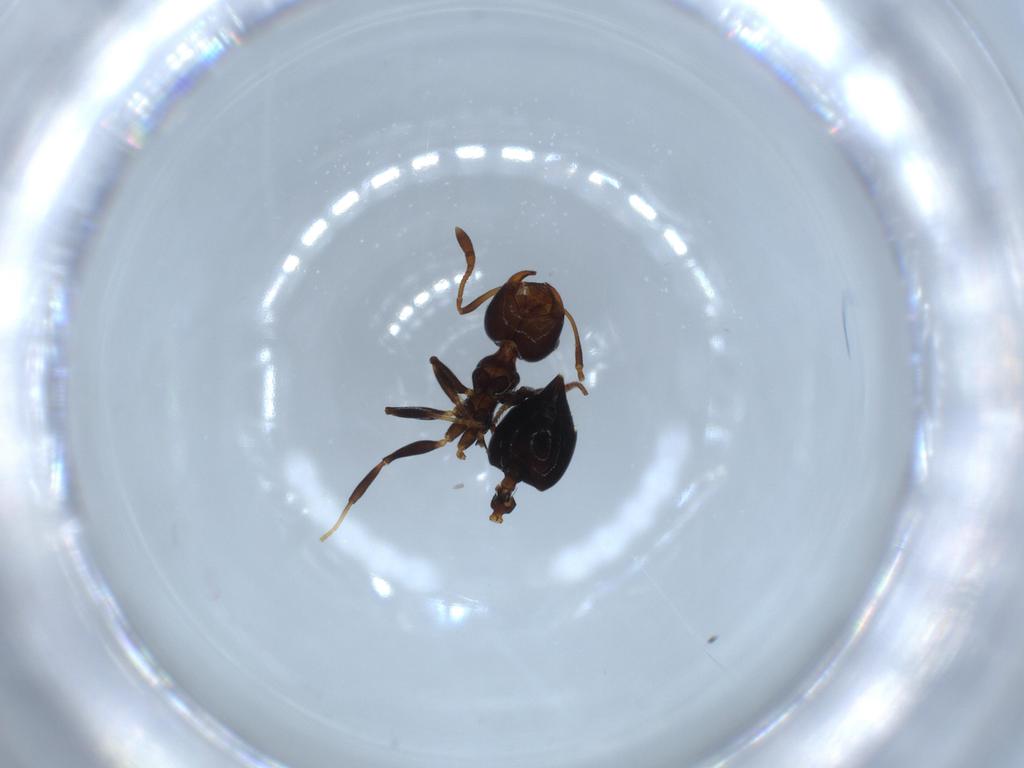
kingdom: Animalia
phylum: Arthropoda
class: Insecta
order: Hymenoptera
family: Formicidae
